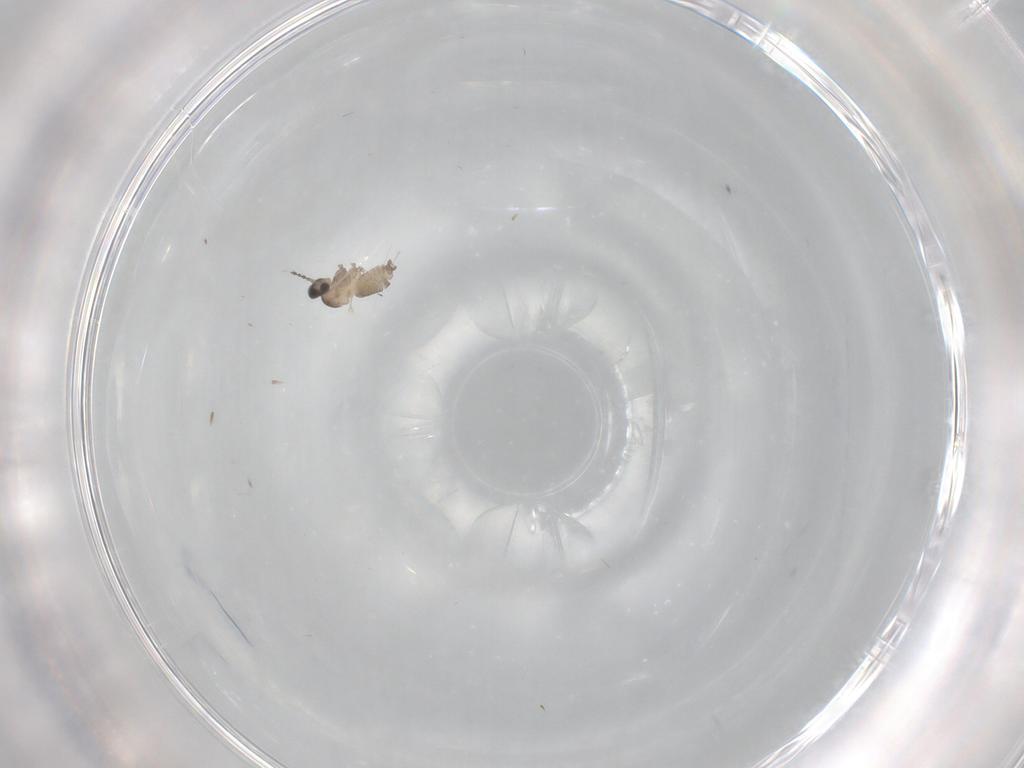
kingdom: Animalia
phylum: Arthropoda
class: Insecta
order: Diptera
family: Cecidomyiidae
